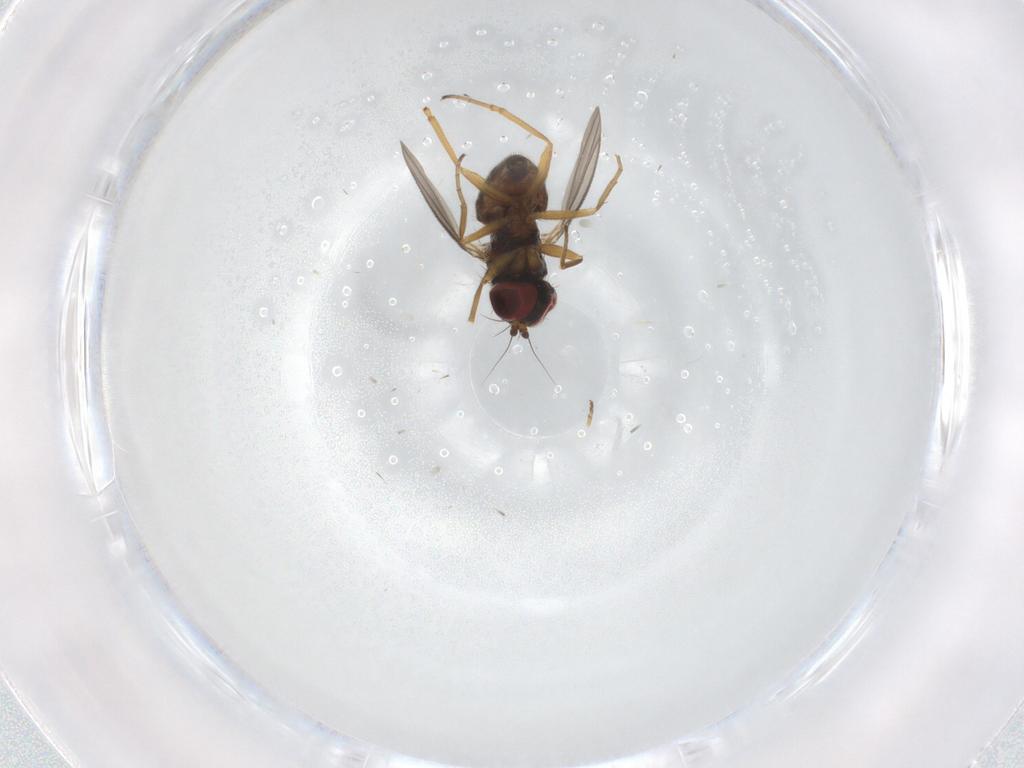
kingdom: Animalia
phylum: Arthropoda
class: Insecta
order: Diptera
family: Dolichopodidae
